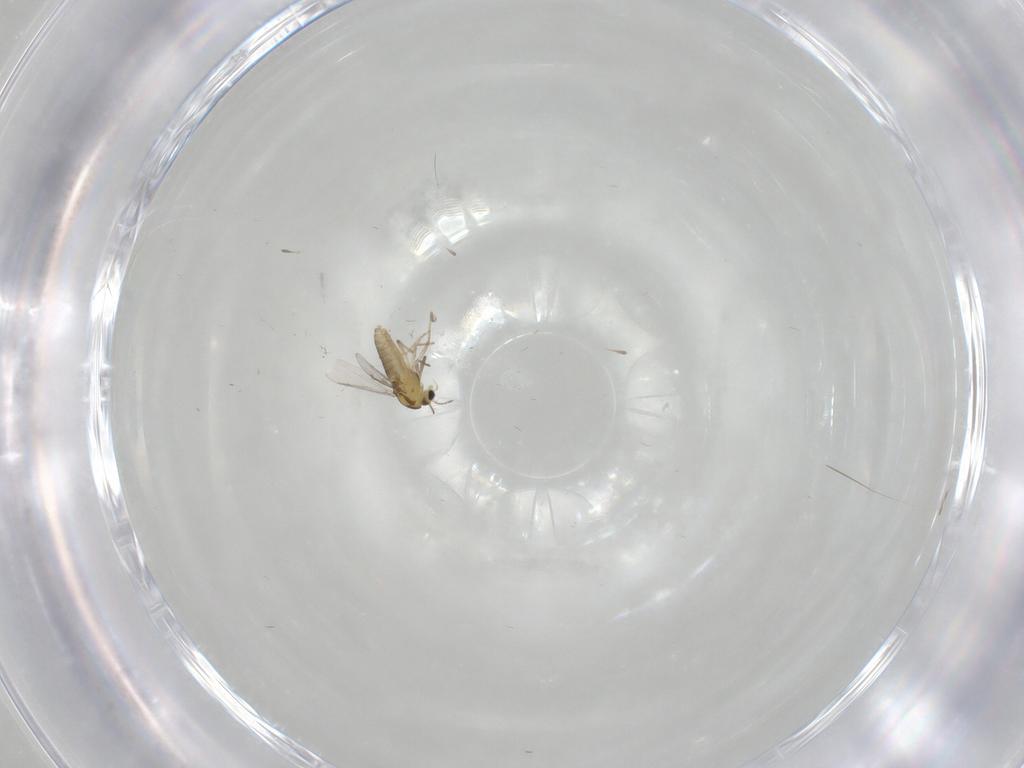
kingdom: Animalia
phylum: Arthropoda
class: Insecta
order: Diptera
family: Chironomidae
